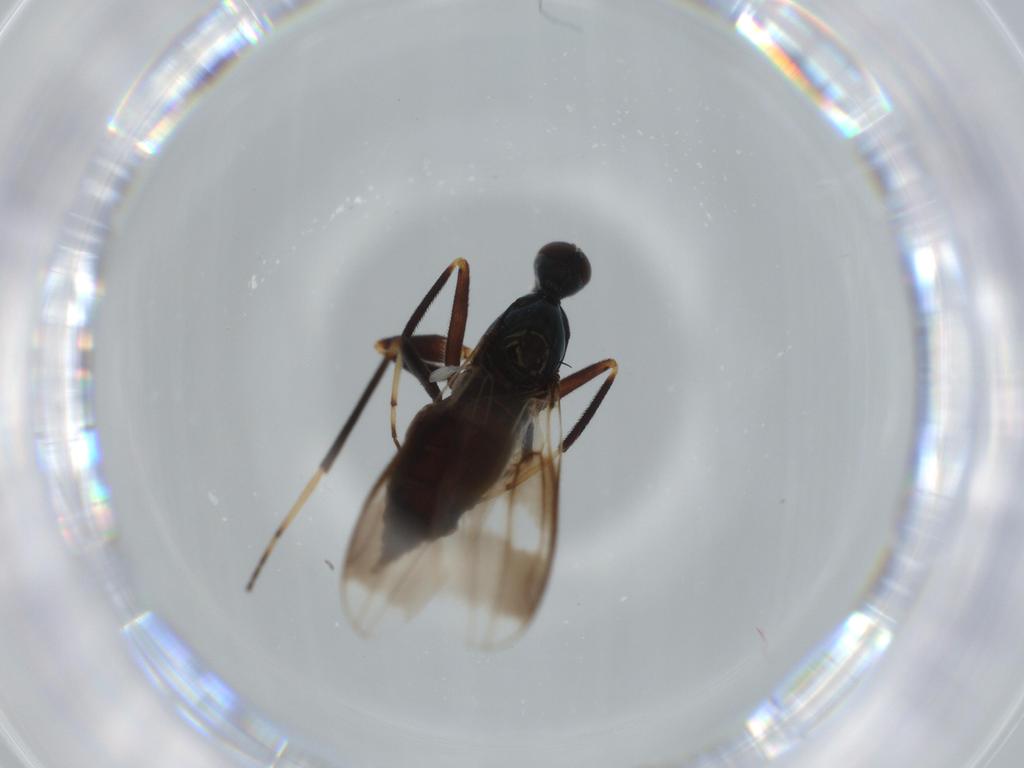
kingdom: Animalia
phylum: Arthropoda
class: Insecta
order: Diptera
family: Hybotidae
